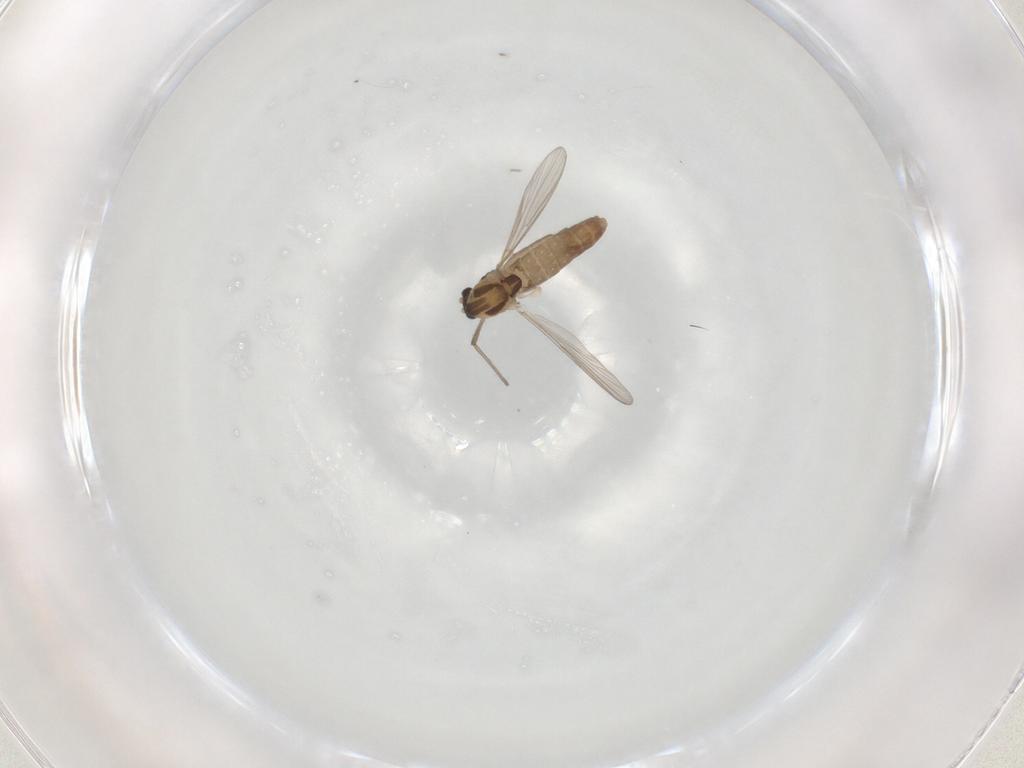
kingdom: Animalia
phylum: Arthropoda
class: Insecta
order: Diptera
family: Chironomidae
